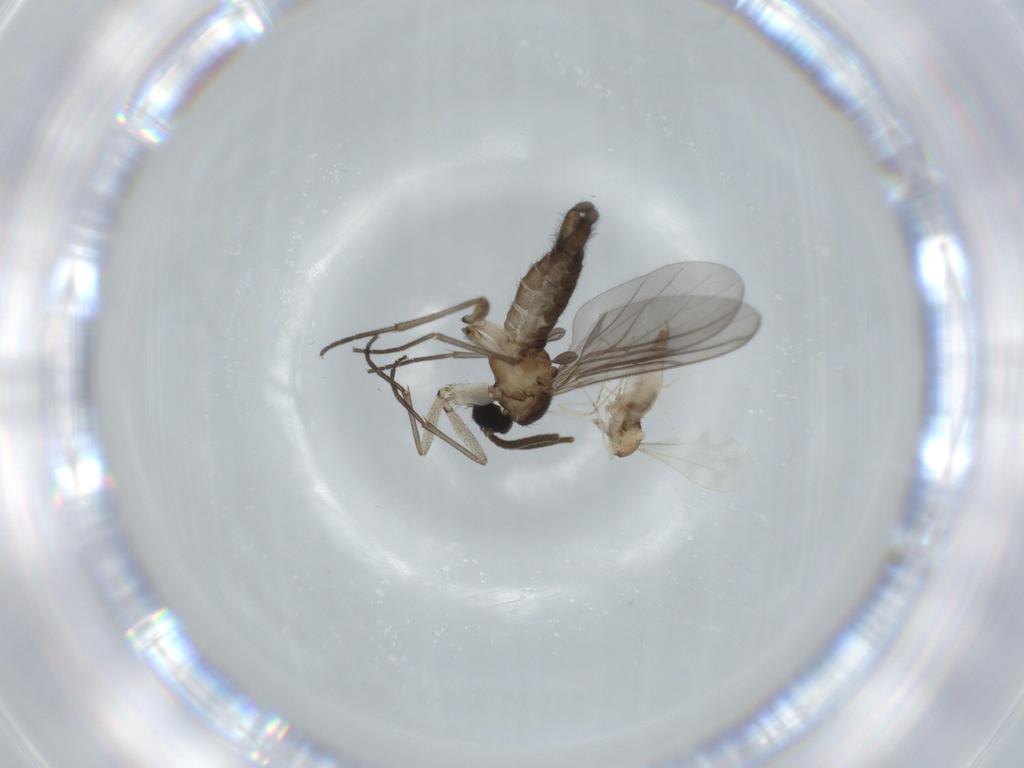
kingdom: Animalia
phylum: Arthropoda
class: Insecta
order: Diptera
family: Sciaridae
